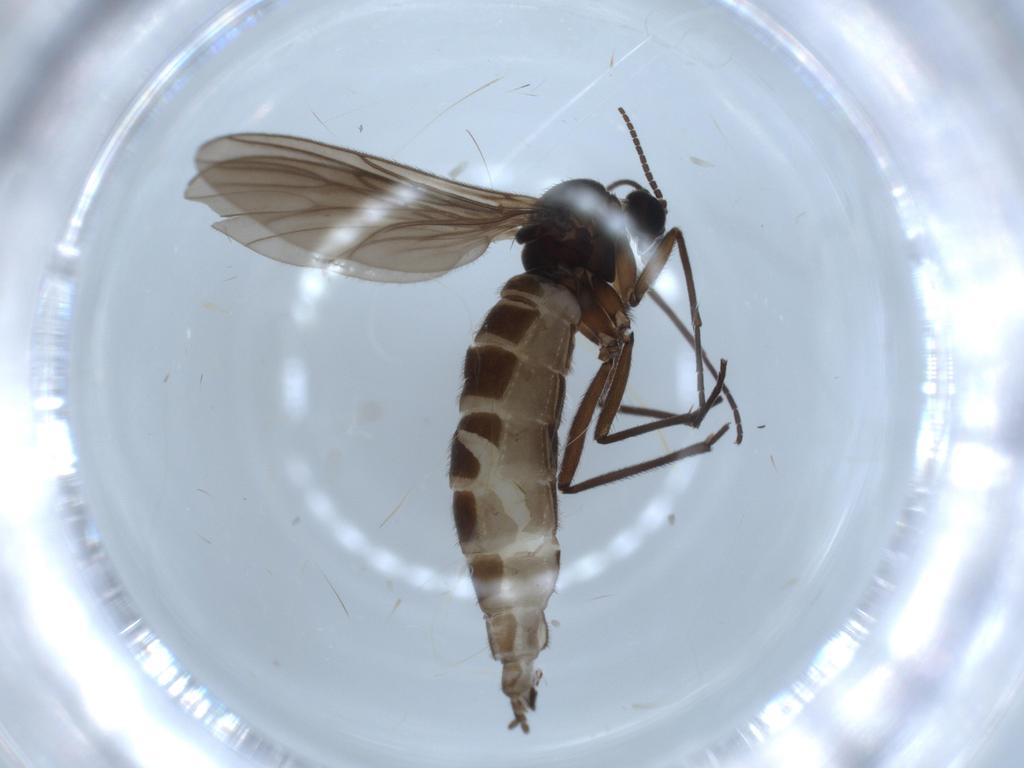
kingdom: Animalia
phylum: Arthropoda
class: Insecta
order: Diptera
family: Sciaridae
